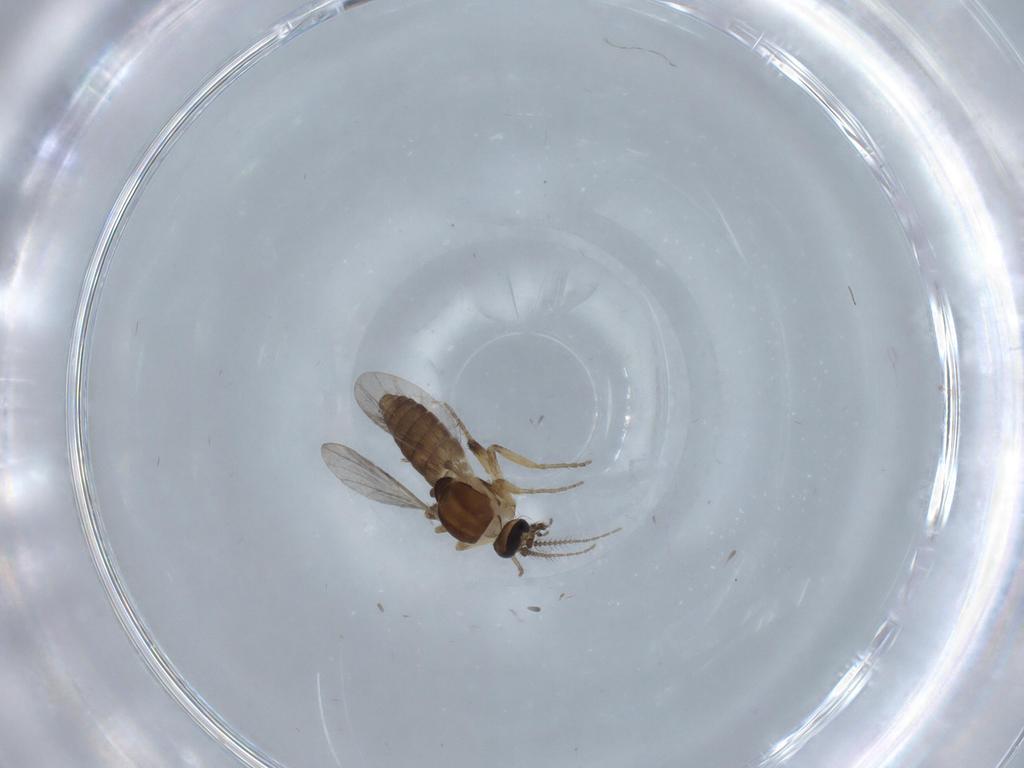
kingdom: Animalia
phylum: Arthropoda
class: Insecta
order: Diptera
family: Ceratopogonidae
